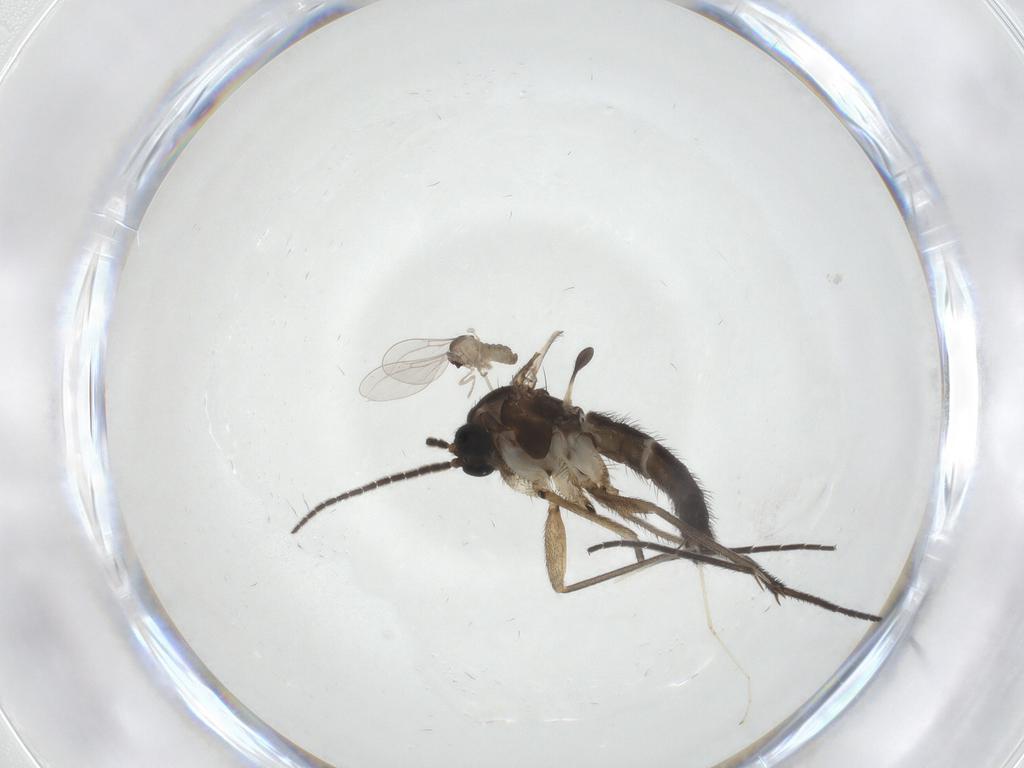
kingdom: Animalia
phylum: Arthropoda
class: Insecta
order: Diptera
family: Sciaridae
